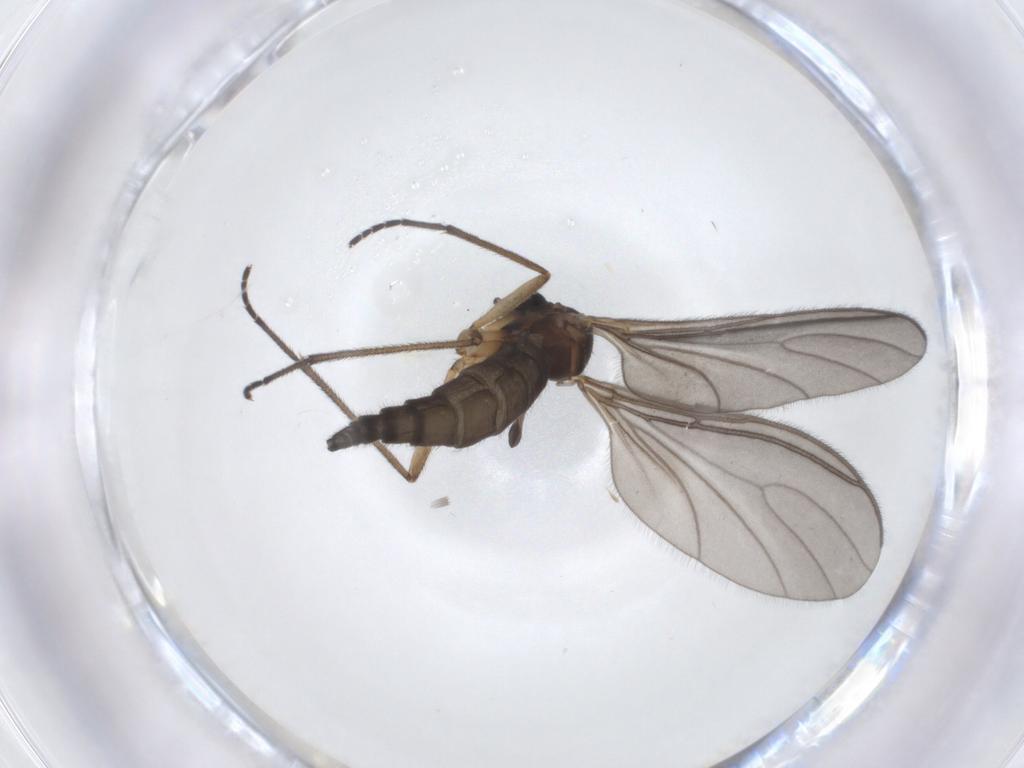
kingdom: Animalia
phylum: Arthropoda
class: Insecta
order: Diptera
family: Sciaridae
